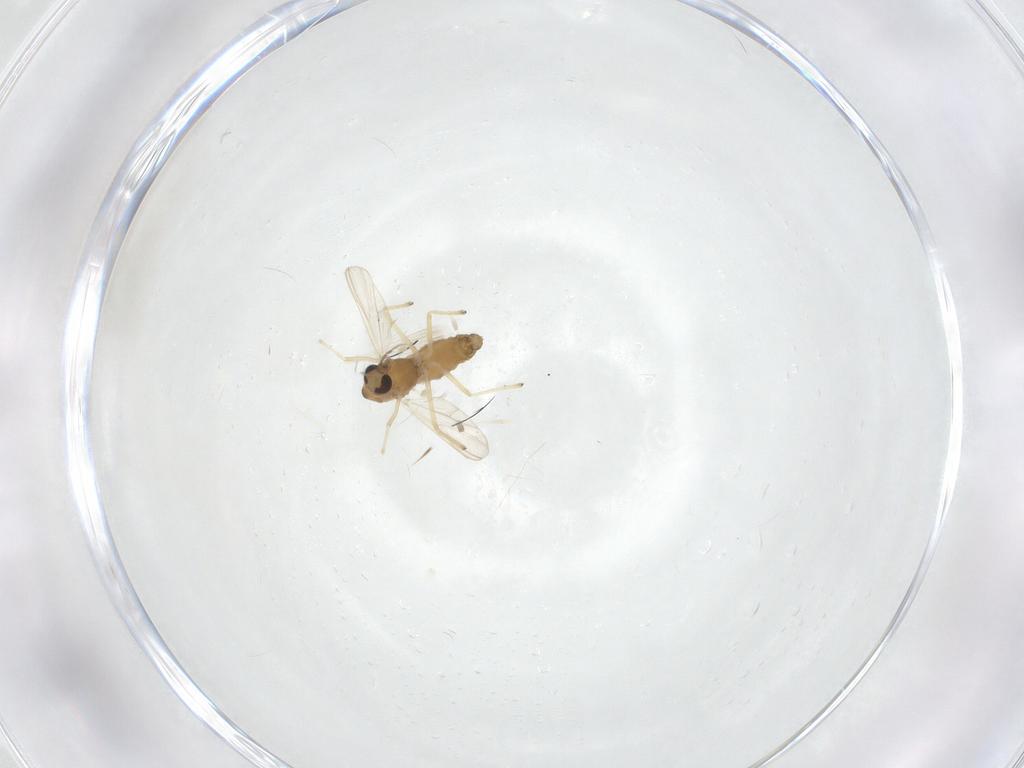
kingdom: Animalia
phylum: Arthropoda
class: Insecta
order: Diptera
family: Chironomidae
